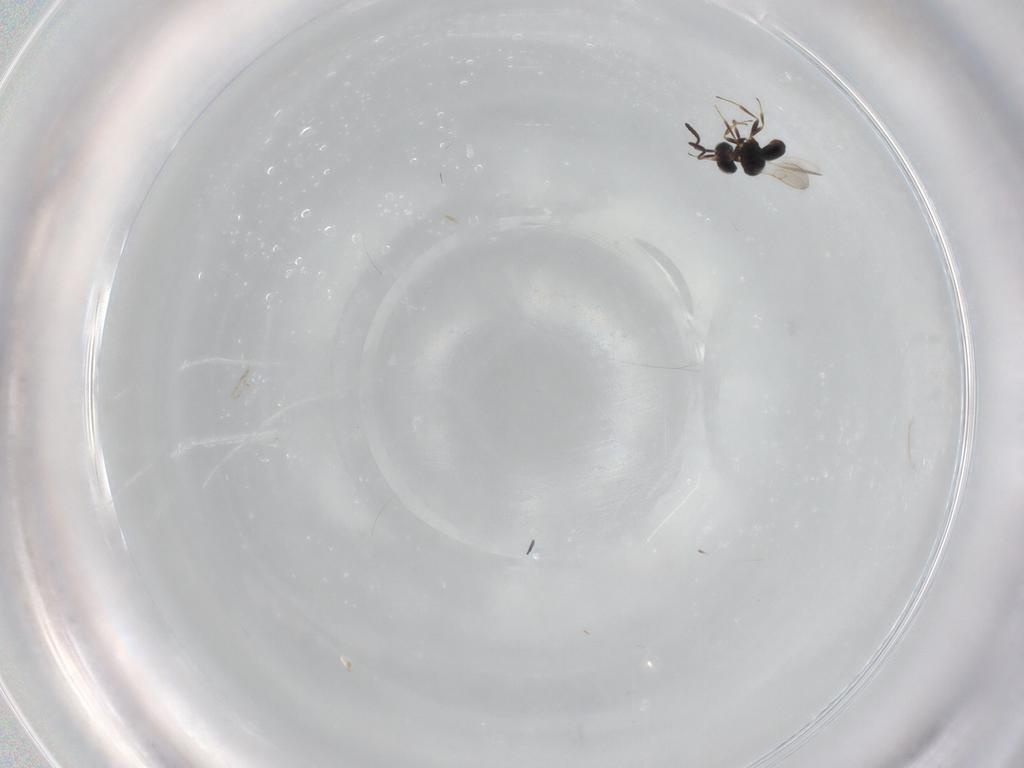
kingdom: Animalia
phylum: Arthropoda
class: Insecta
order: Hymenoptera
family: Scelionidae
